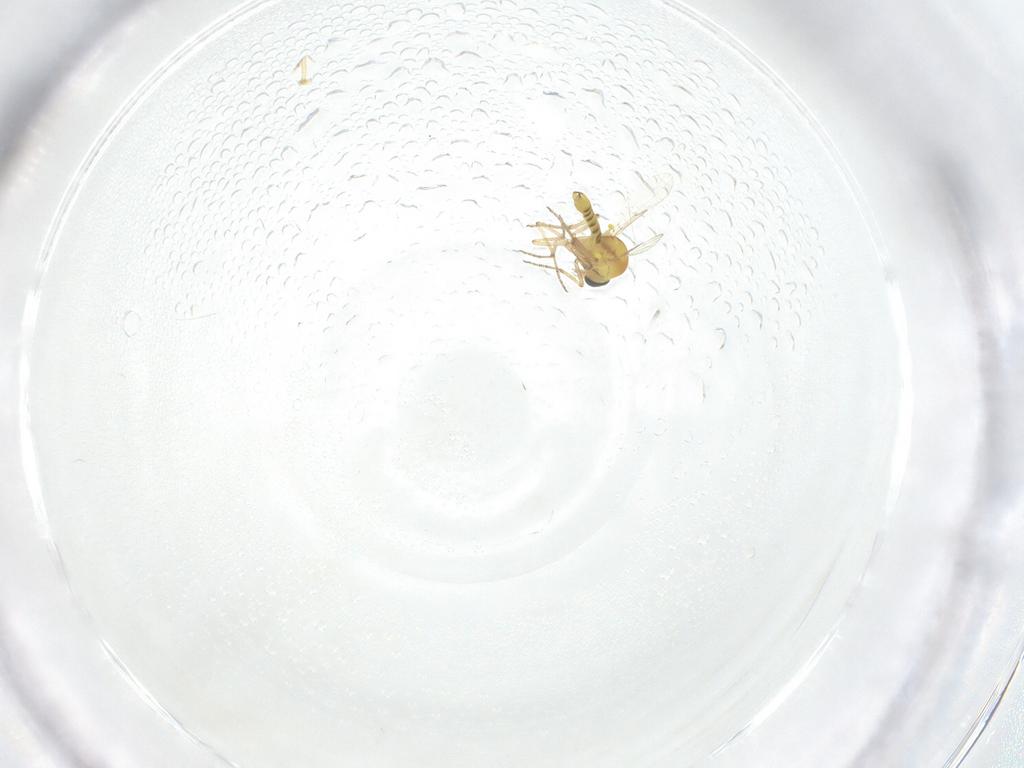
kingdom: Animalia
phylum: Arthropoda
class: Insecta
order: Diptera
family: Ceratopogonidae
